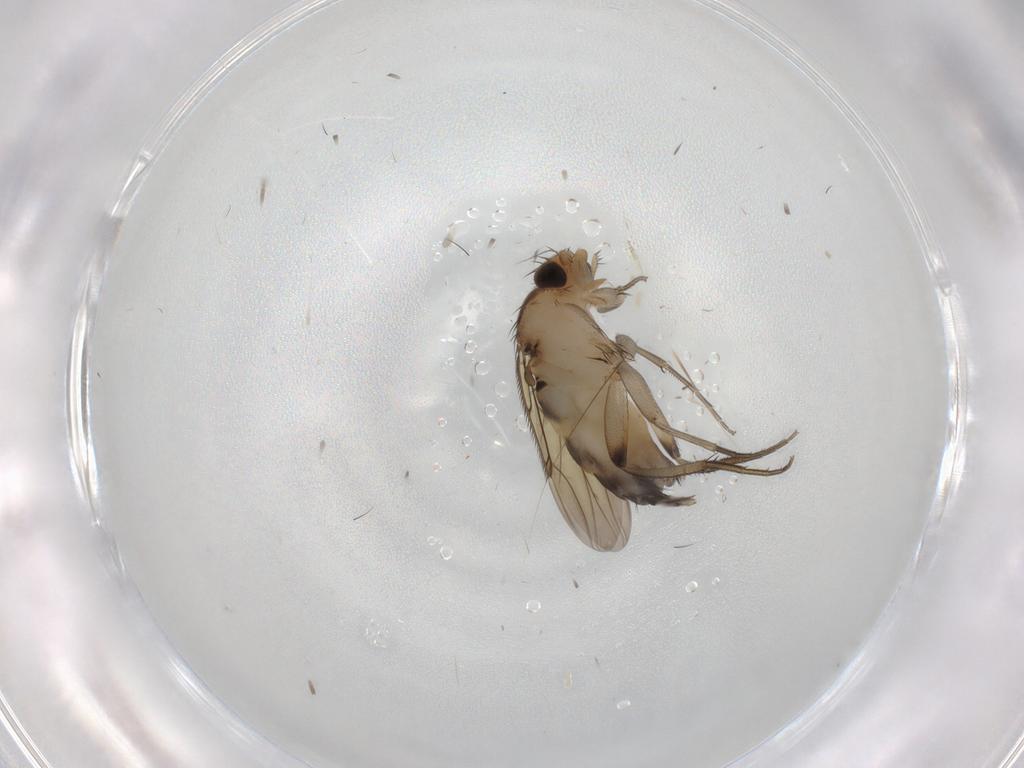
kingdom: Animalia
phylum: Arthropoda
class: Insecta
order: Diptera
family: Phoridae
